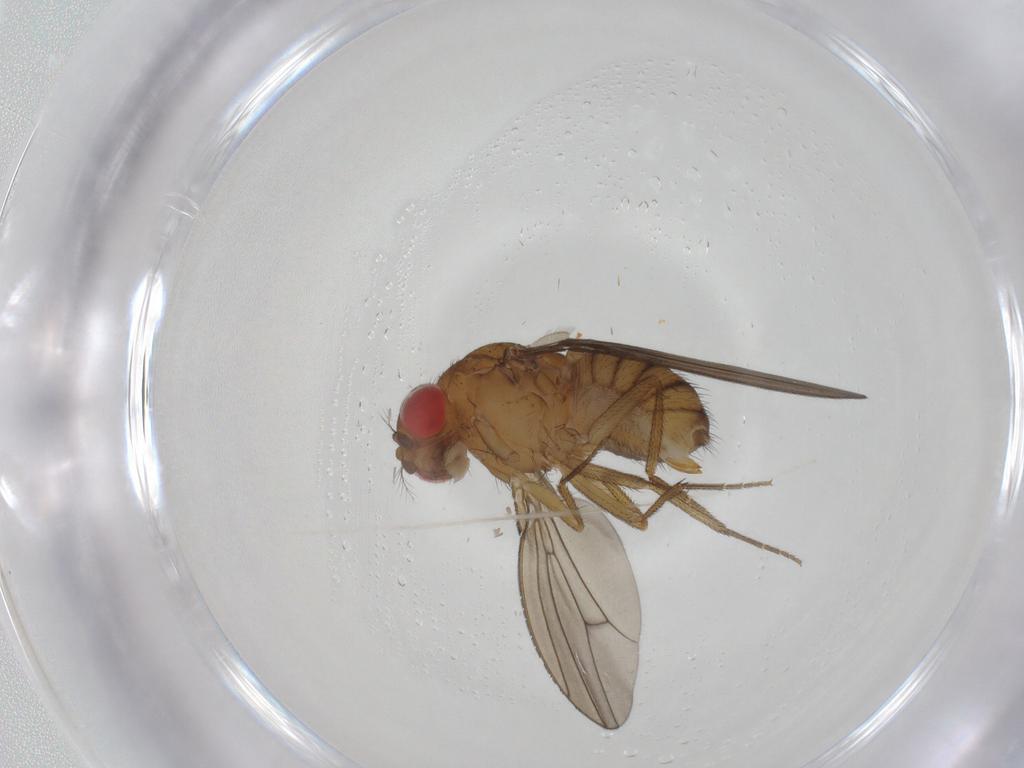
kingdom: Animalia
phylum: Arthropoda
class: Insecta
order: Diptera
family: Drosophilidae
